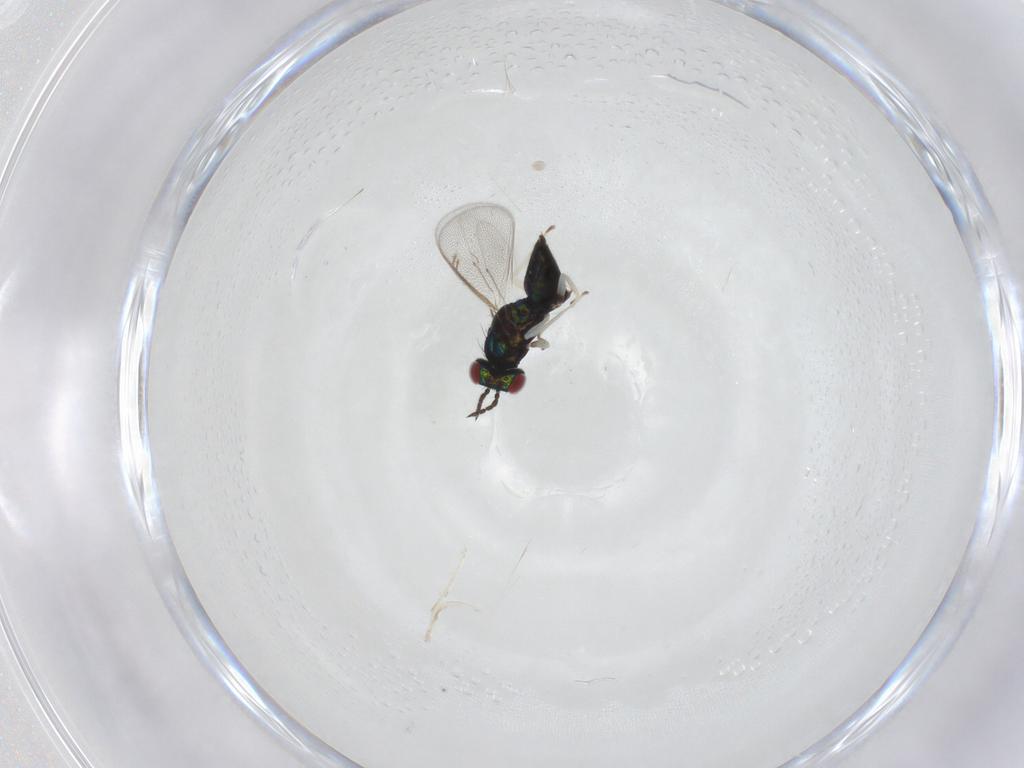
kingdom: Animalia
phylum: Arthropoda
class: Insecta
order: Hymenoptera
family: Eulophidae
